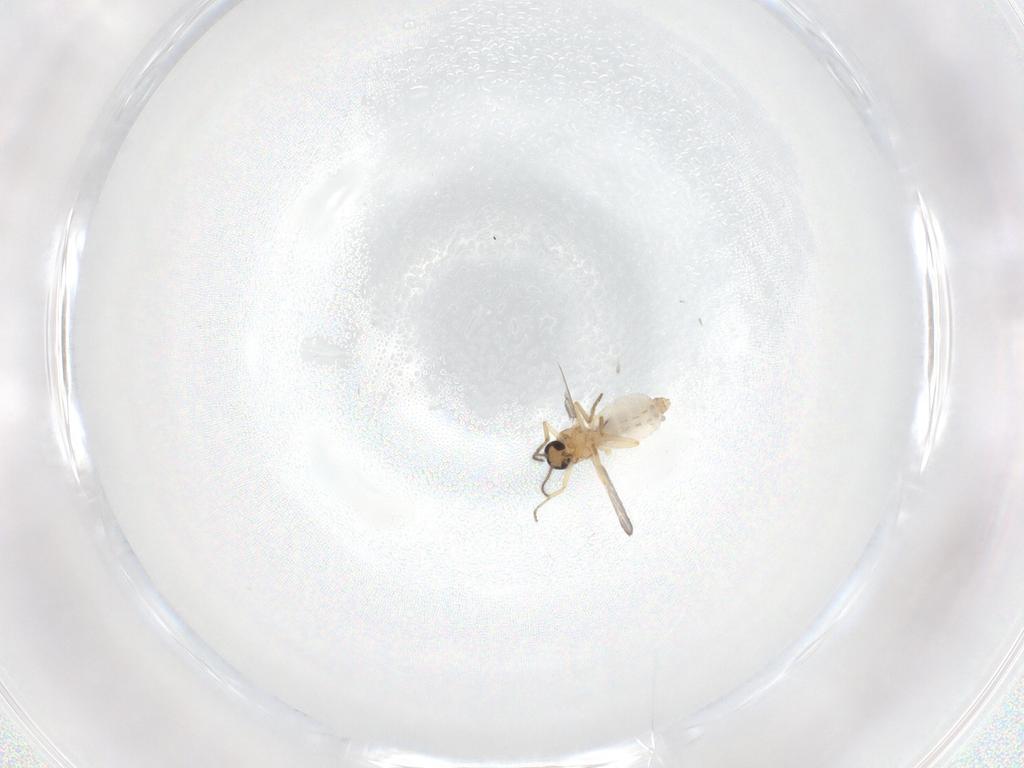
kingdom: Animalia
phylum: Arthropoda
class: Insecta
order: Diptera
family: Ceratopogonidae
